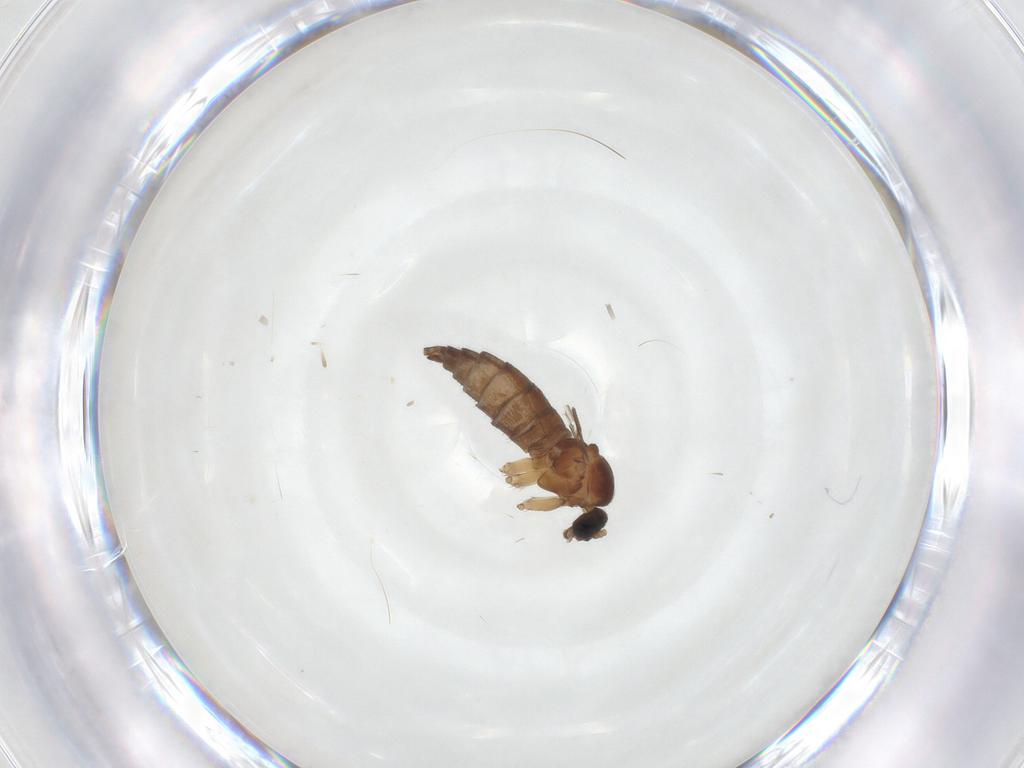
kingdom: Animalia
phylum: Arthropoda
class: Insecta
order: Diptera
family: Sciaridae
